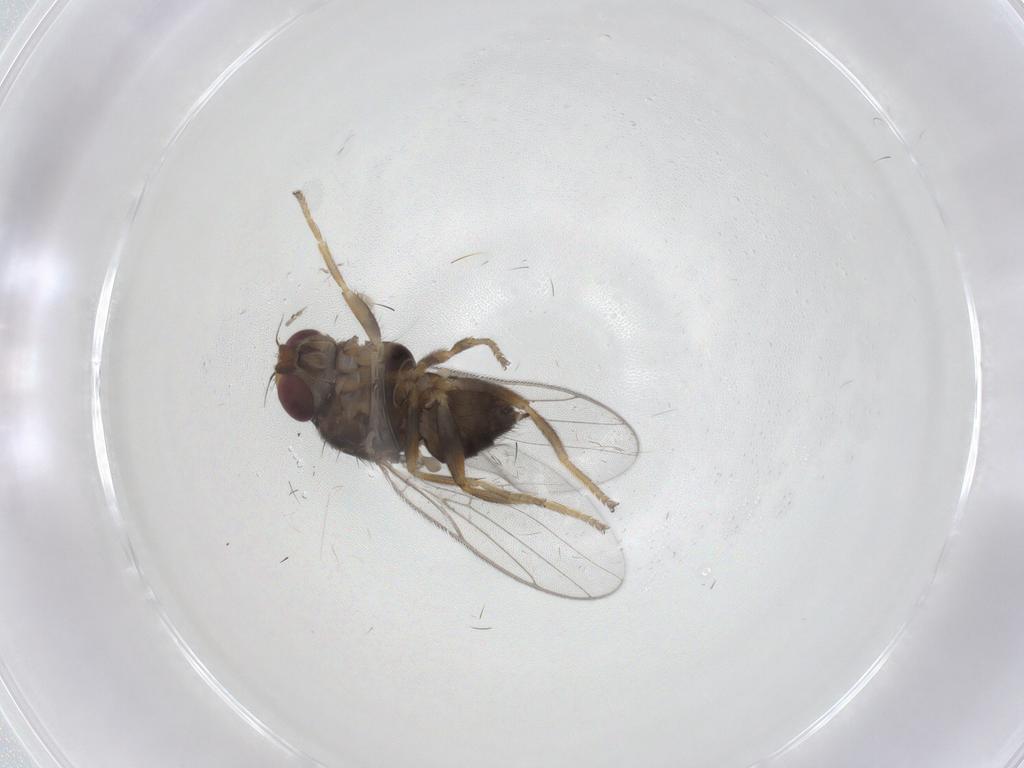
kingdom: Animalia
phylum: Arthropoda
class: Insecta
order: Diptera
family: Chloropidae
